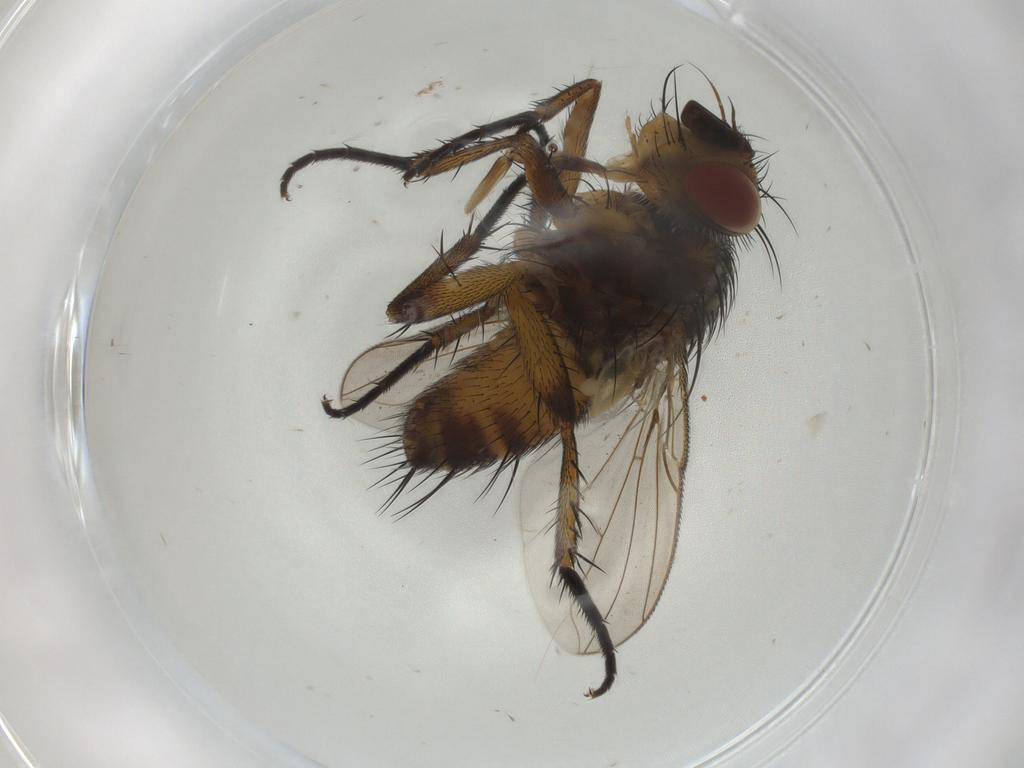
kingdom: Animalia
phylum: Arthropoda
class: Insecta
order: Diptera
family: Tachinidae
